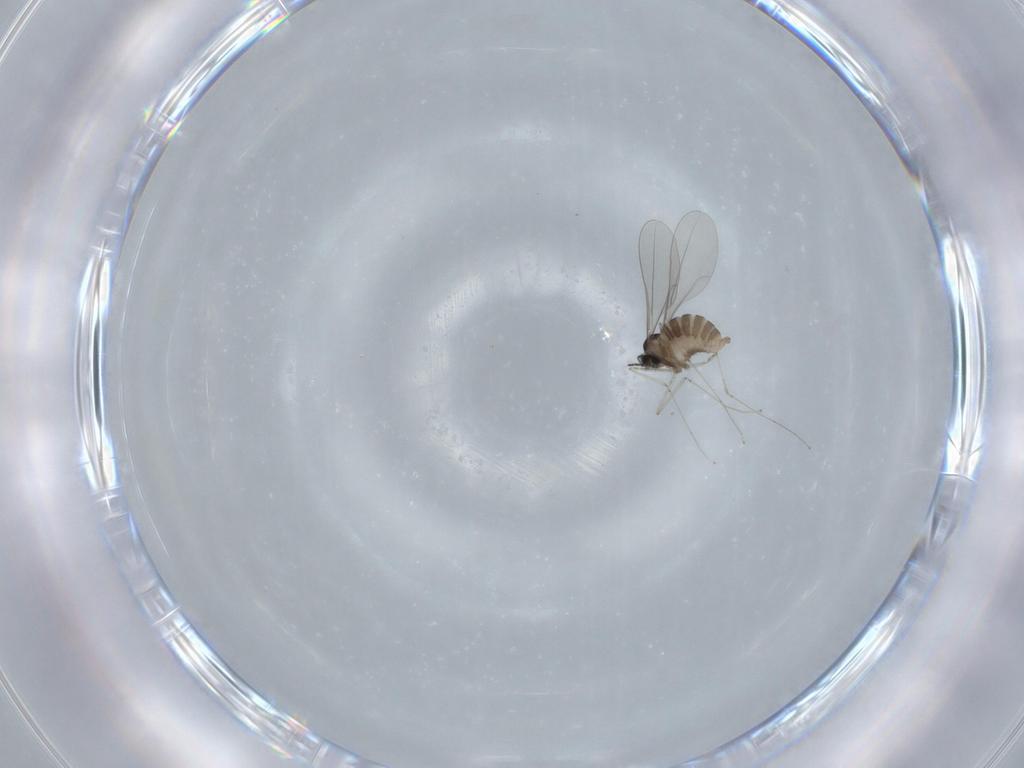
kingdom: Animalia
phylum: Arthropoda
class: Insecta
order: Diptera
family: Cecidomyiidae
